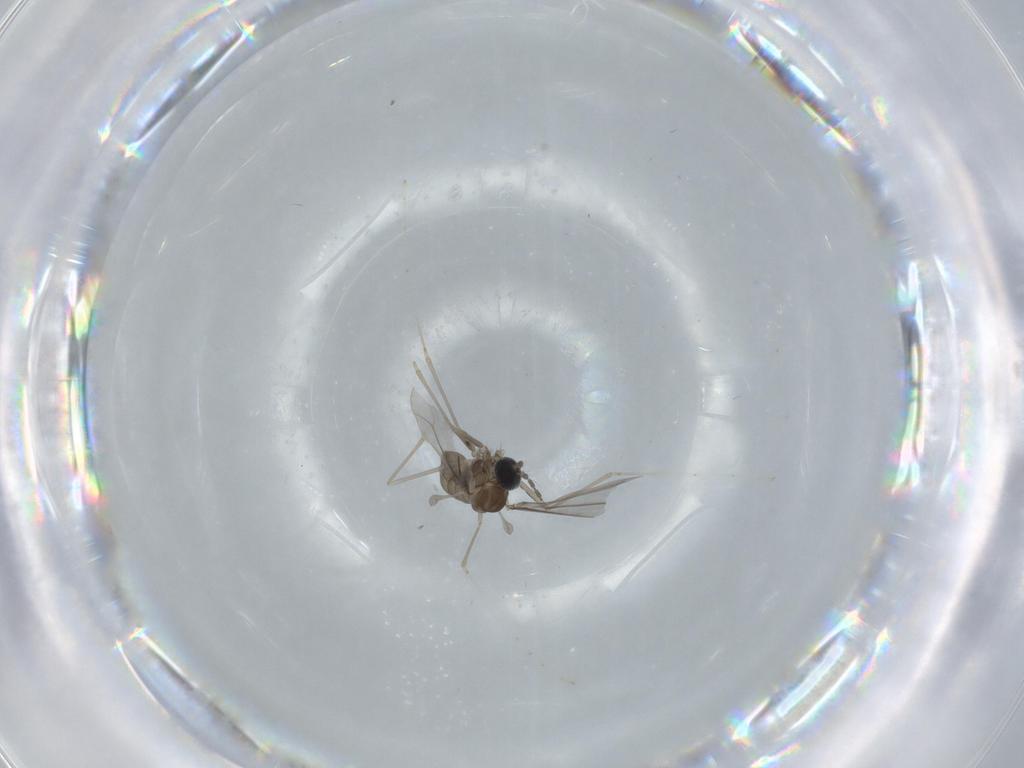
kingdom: Animalia
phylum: Arthropoda
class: Insecta
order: Diptera
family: Cecidomyiidae
